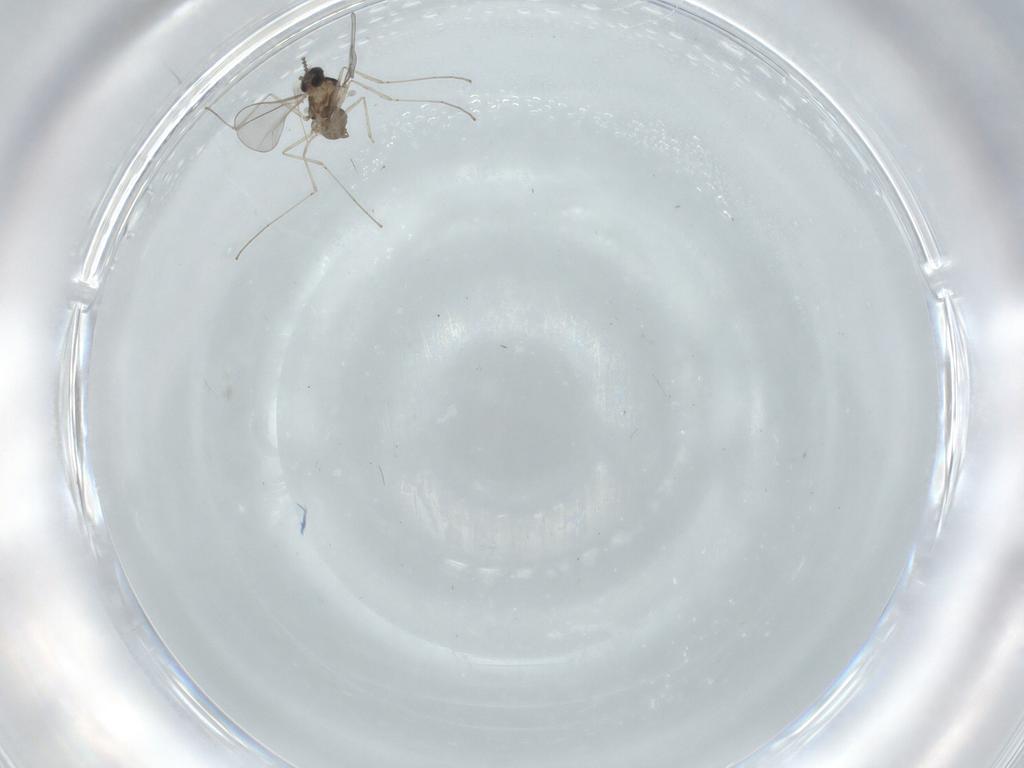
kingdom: Animalia
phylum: Arthropoda
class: Insecta
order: Diptera
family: Cecidomyiidae
